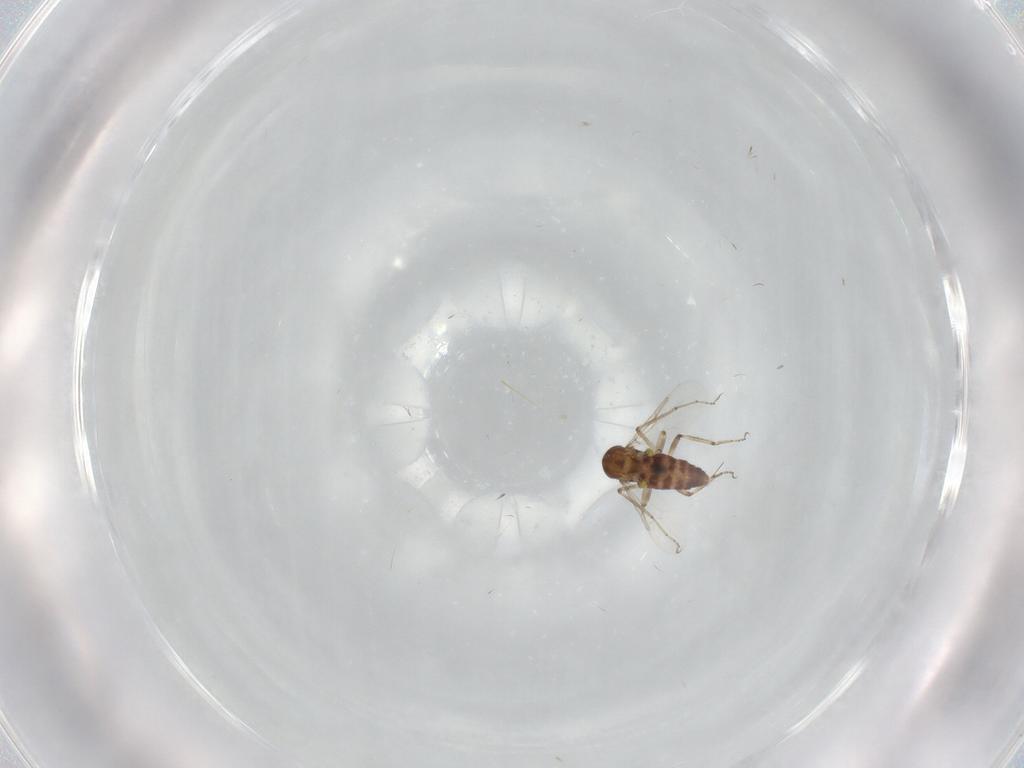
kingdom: Animalia
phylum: Arthropoda
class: Insecta
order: Diptera
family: Ceratopogonidae
